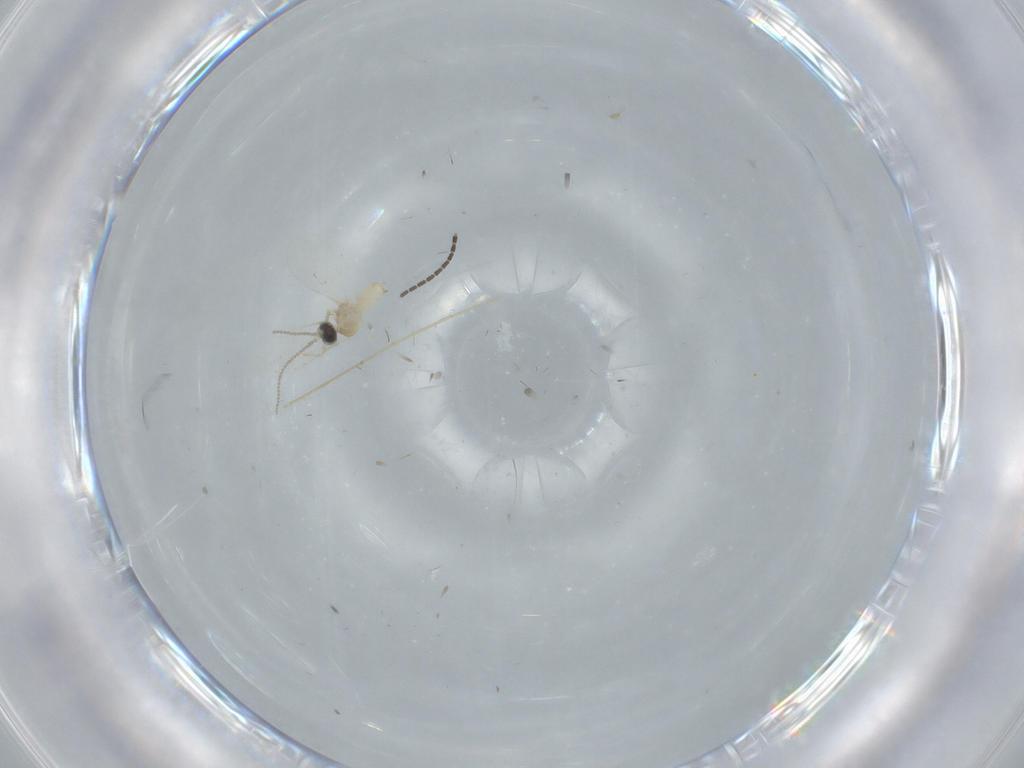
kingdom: Animalia
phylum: Arthropoda
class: Insecta
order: Diptera
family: Cecidomyiidae
